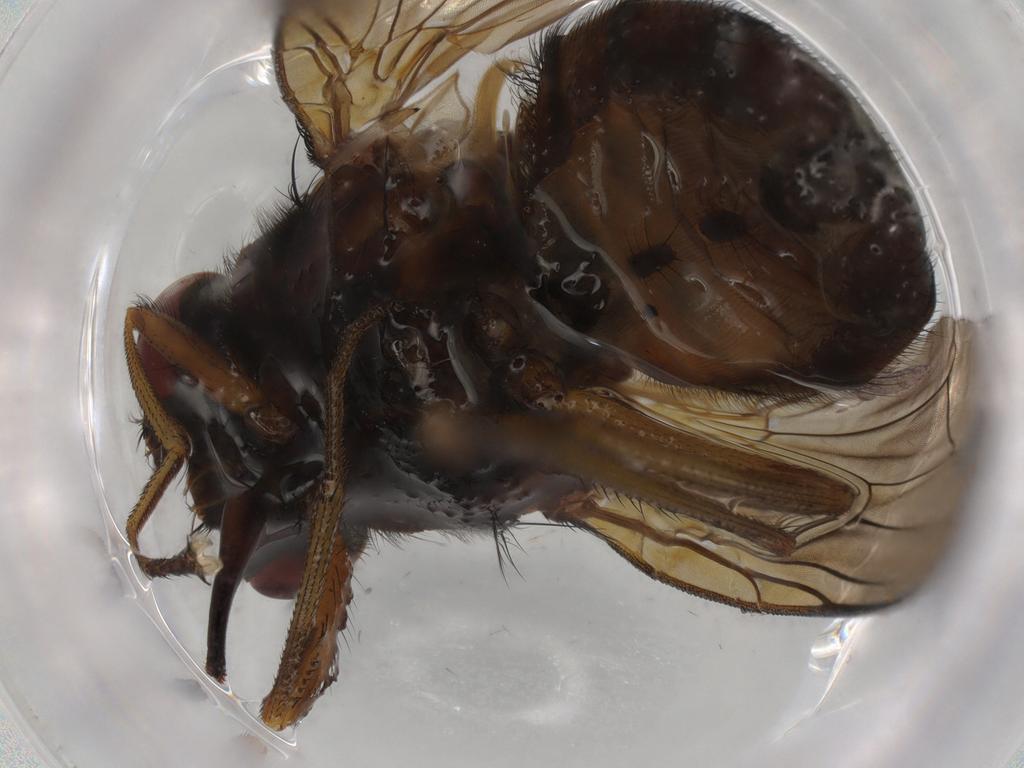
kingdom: Animalia
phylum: Arthropoda
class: Insecta
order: Diptera
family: Muscidae
